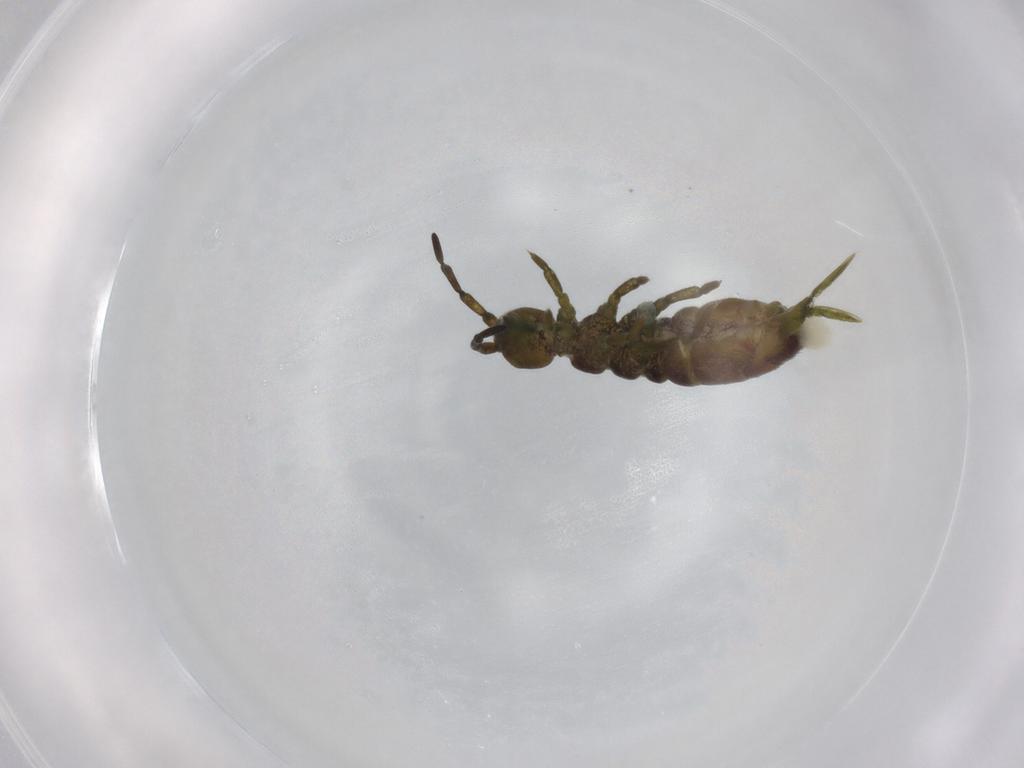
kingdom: Animalia
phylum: Arthropoda
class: Collembola
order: Entomobryomorpha
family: Isotomidae
